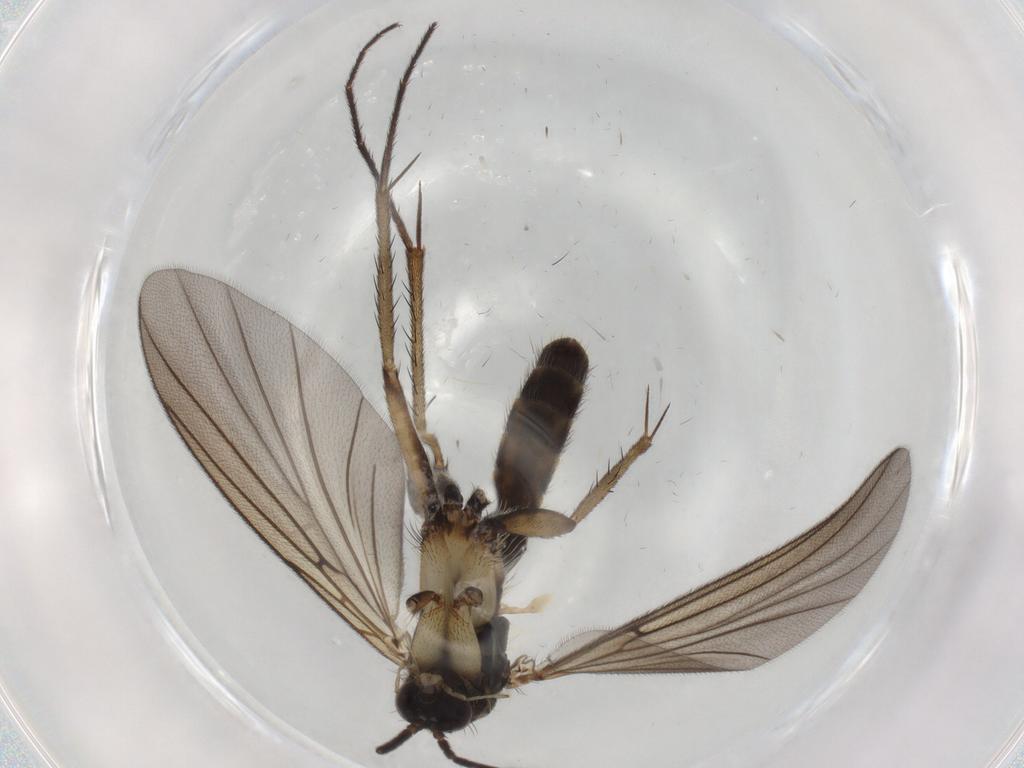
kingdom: Animalia
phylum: Arthropoda
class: Insecta
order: Diptera
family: Mycetophilidae
